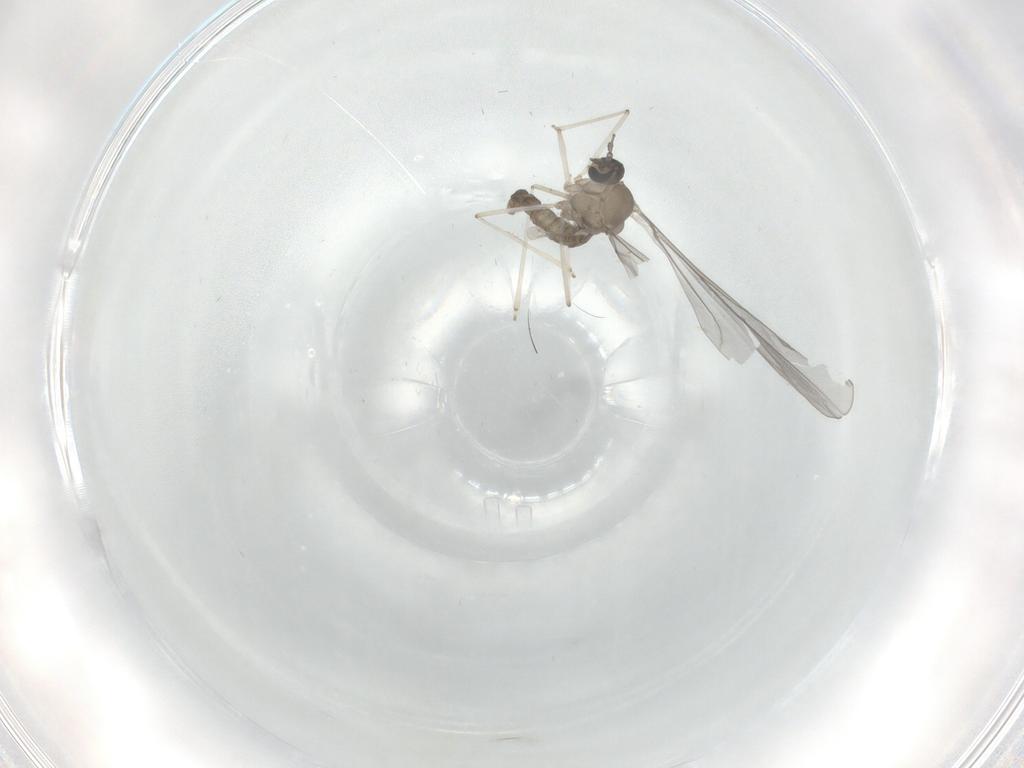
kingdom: Animalia
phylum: Arthropoda
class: Insecta
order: Diptera
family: Cecidomyiidae
